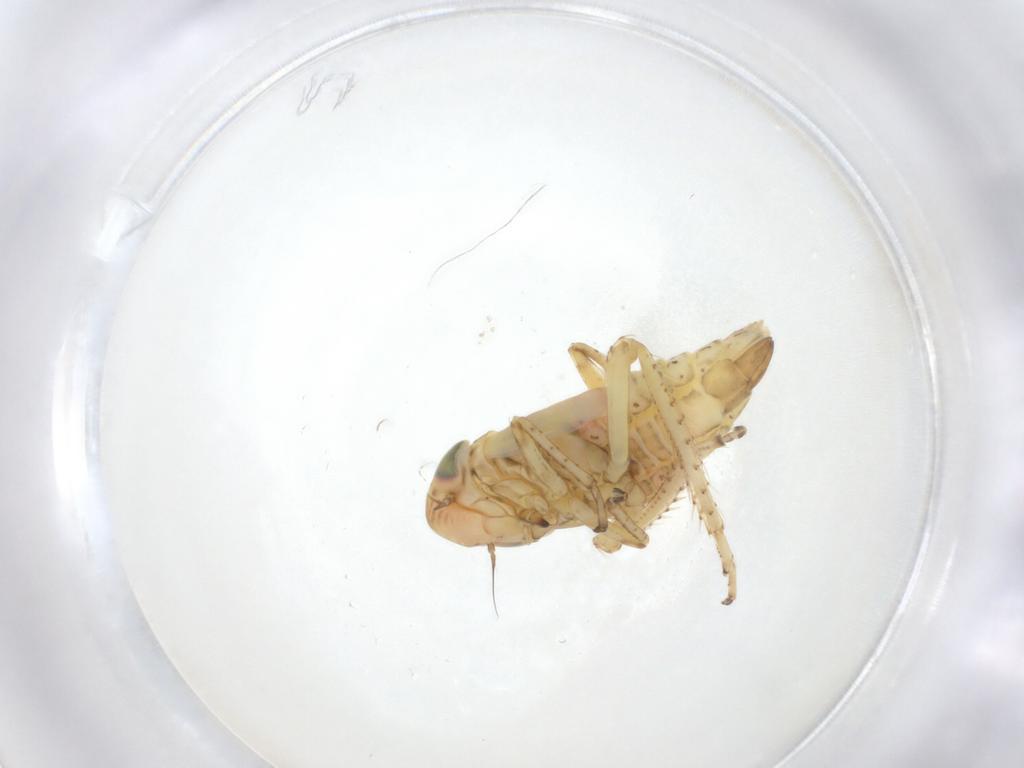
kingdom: Animalia
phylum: Arthropoda
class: Insecta
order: Hemiptera
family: Cicadellidae
